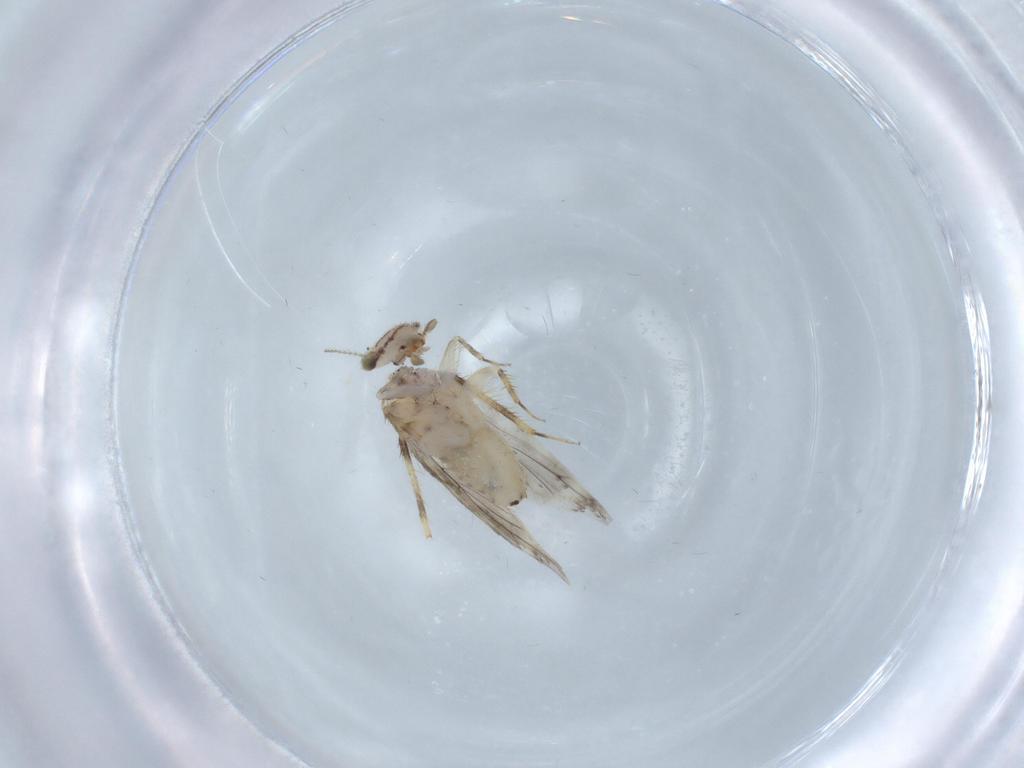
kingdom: Animalia
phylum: Arthropoda
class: Insecta
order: Psocodea
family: Lepidopsocidae
